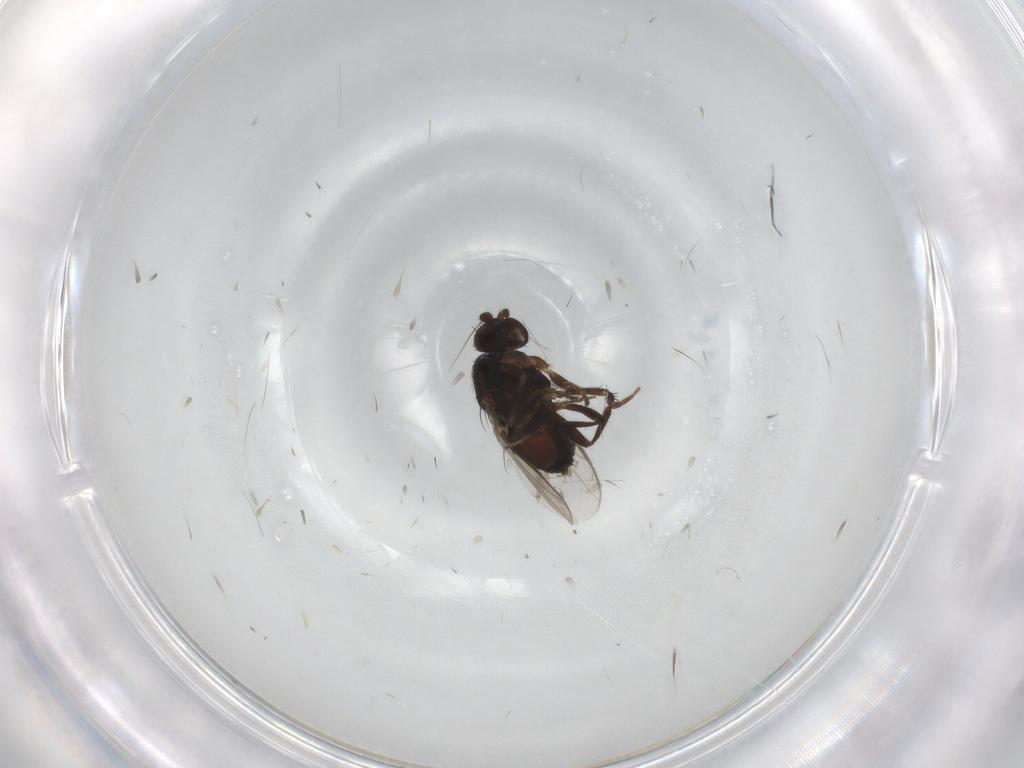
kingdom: Animalia
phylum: Arthropoda
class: Insecta
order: Diptera
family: Sphaeroceridae
